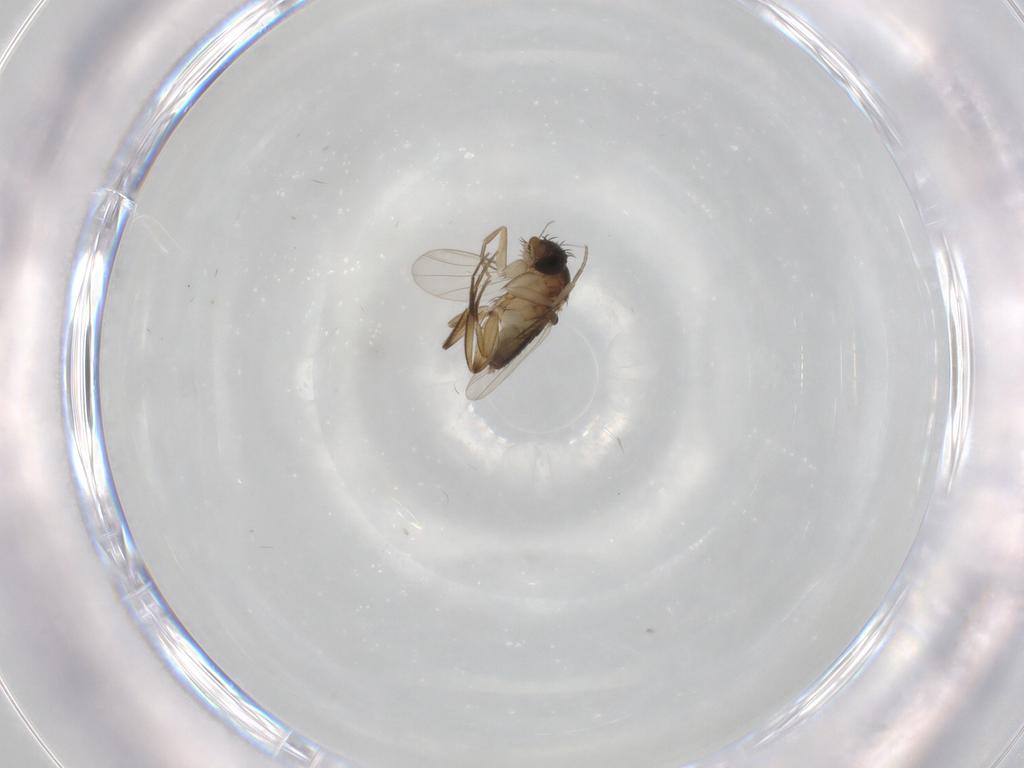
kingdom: Animalia
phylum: Arthropoda
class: Insecta
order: Diptera
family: Phoridae
